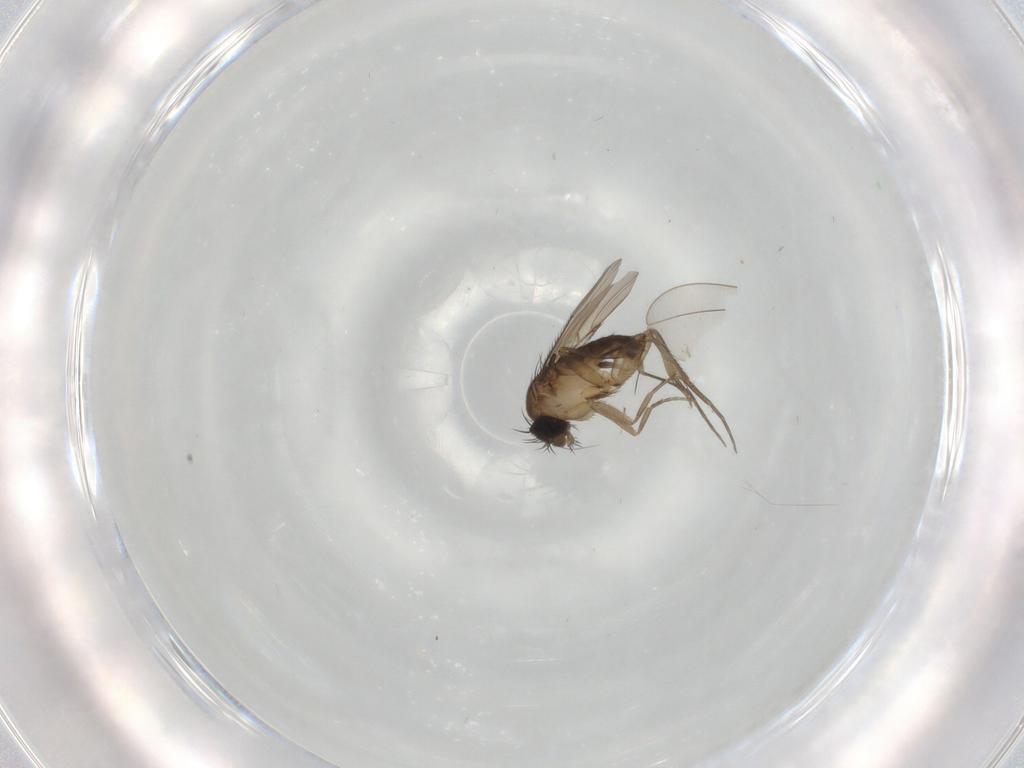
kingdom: Animalia
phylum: Arthropoda
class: Insecta
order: Diptera
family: Phoridae
